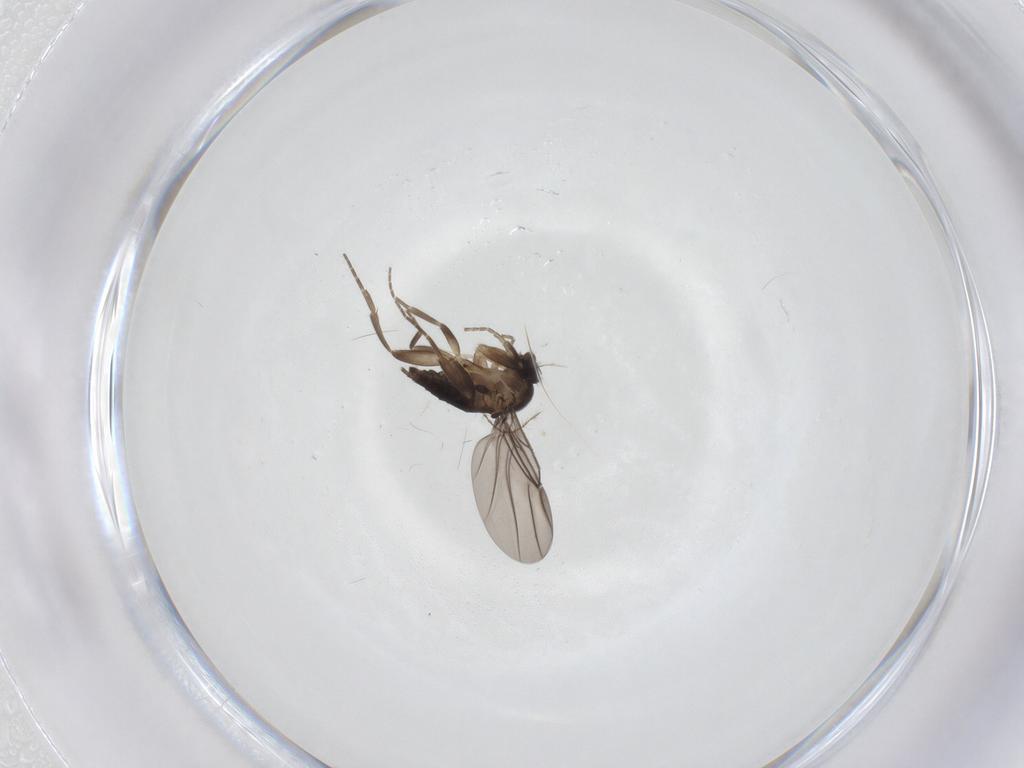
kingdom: Animalia
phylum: Arthropoda
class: Insecta
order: Diptera
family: Ceratopogonidae
